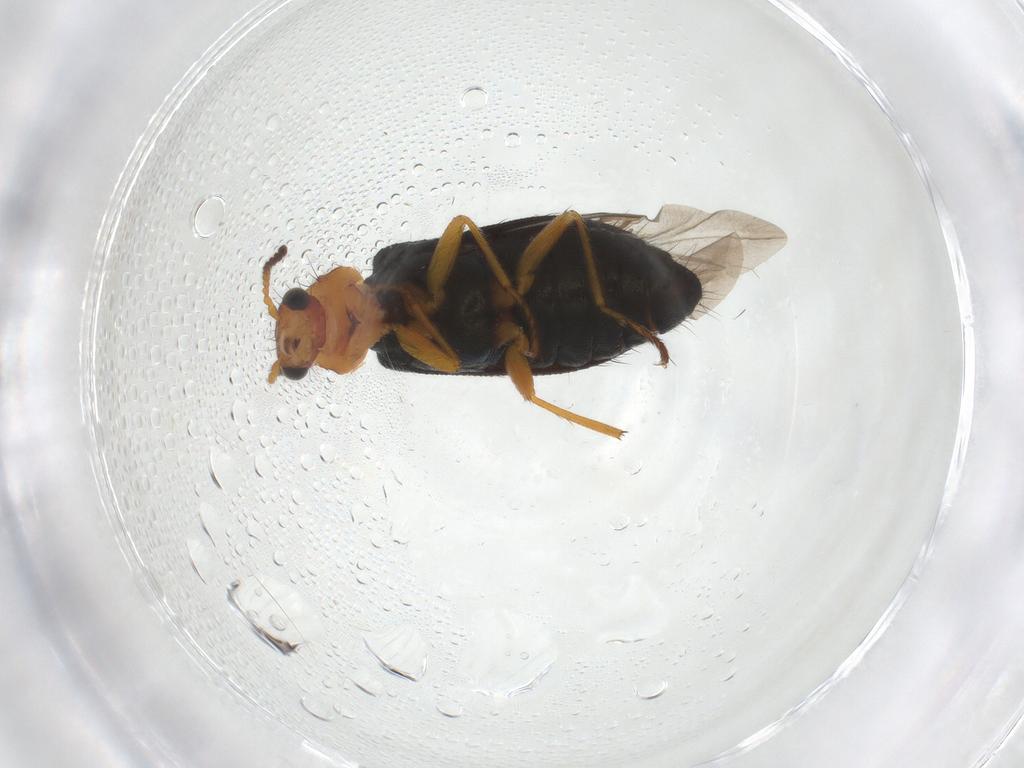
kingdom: Animalia
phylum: Arthropoda
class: Insecta
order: Coleoptera
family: Melyridae
